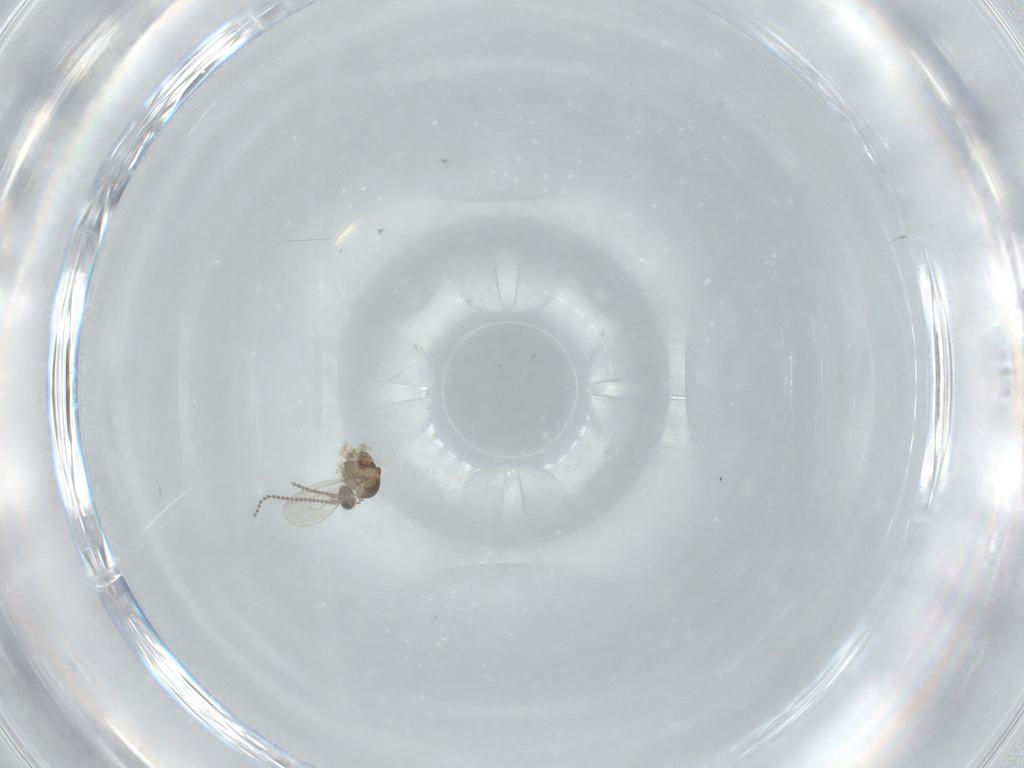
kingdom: Animalia
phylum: Arthropoda
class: Insecta
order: Diptera
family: Cecidomyiidae
